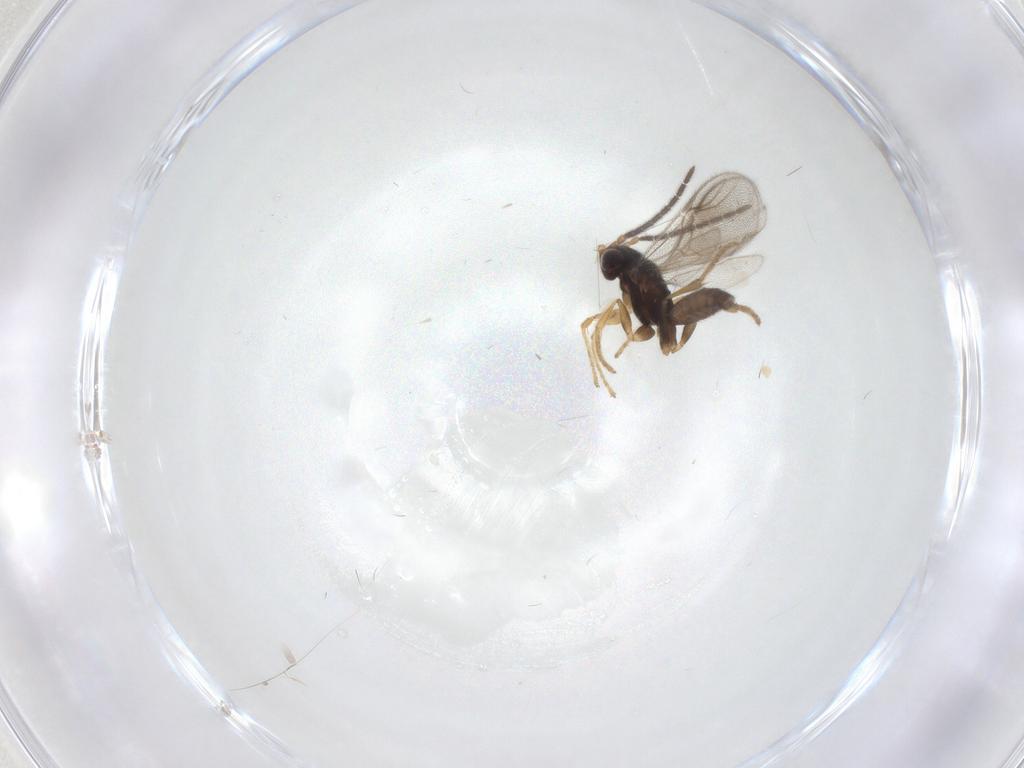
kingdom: Animalia
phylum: Arthropoda
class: Insecta
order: Hymenoptera
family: Dryinidae
